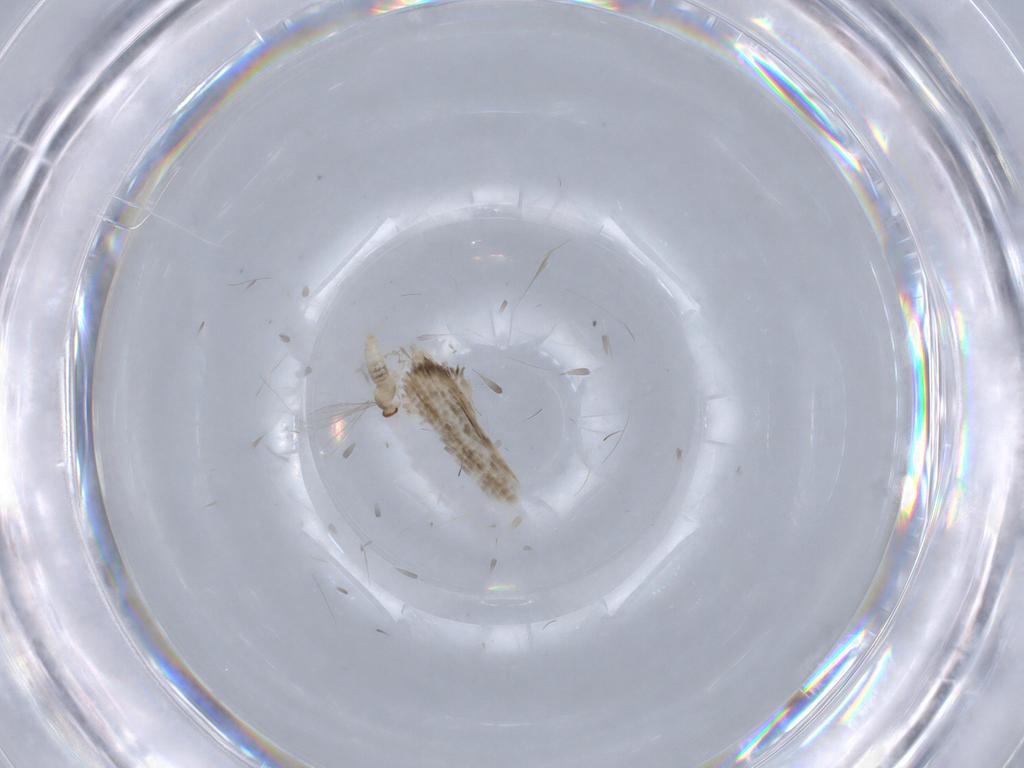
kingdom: Animalia
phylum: Arthropoda
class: Insecta
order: Diptera
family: Cecidomyiidae
